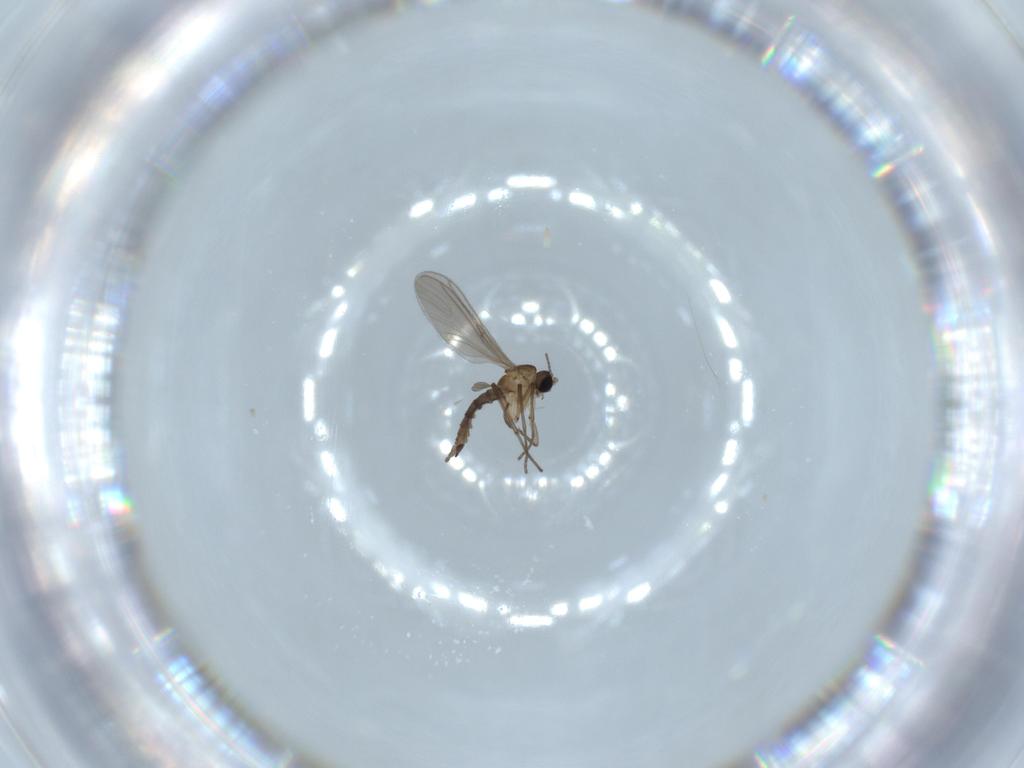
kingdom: Animalia
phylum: Arthropoda
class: Insecta
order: Diptera
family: Sciaridae
